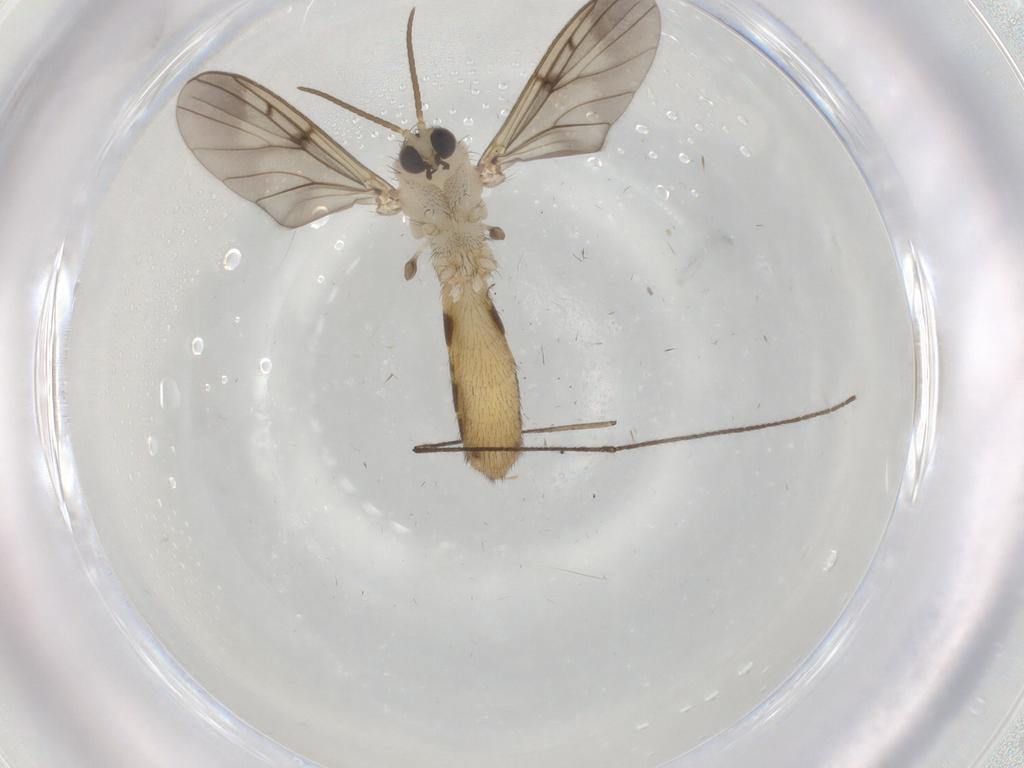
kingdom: Animalia
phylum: Arthropoda
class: Insecta
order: Diptera
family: Mycetophilidae
